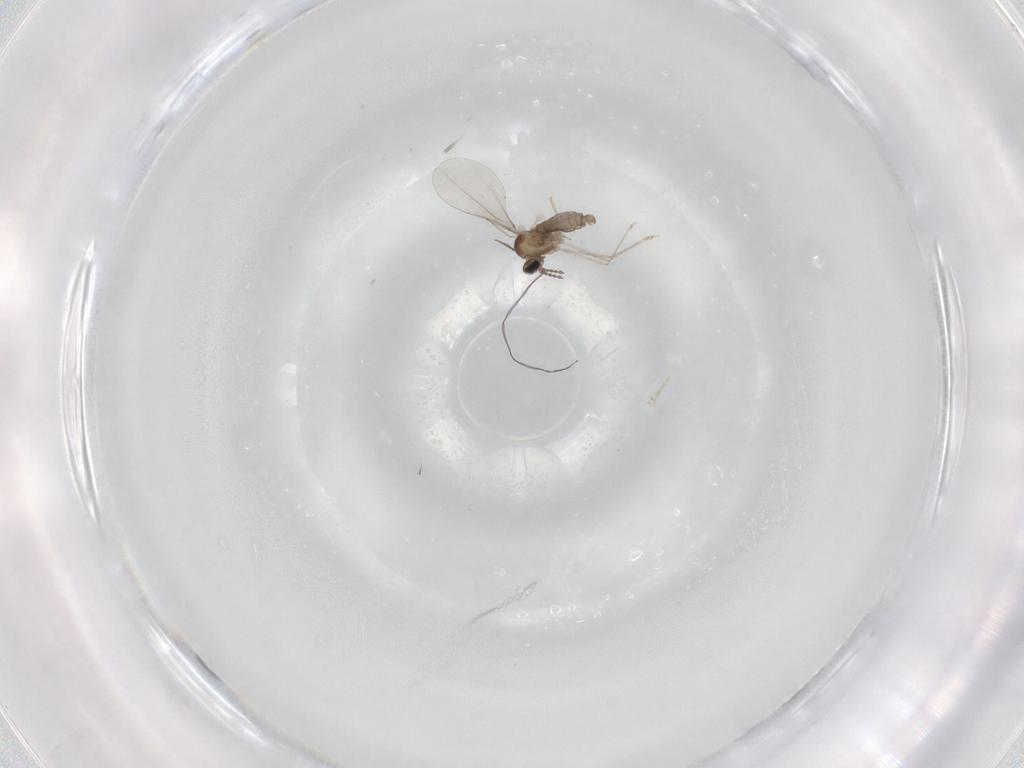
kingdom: Animalia
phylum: Arthropoda
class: Insecta
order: Diptera
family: Cecidomyiidae
